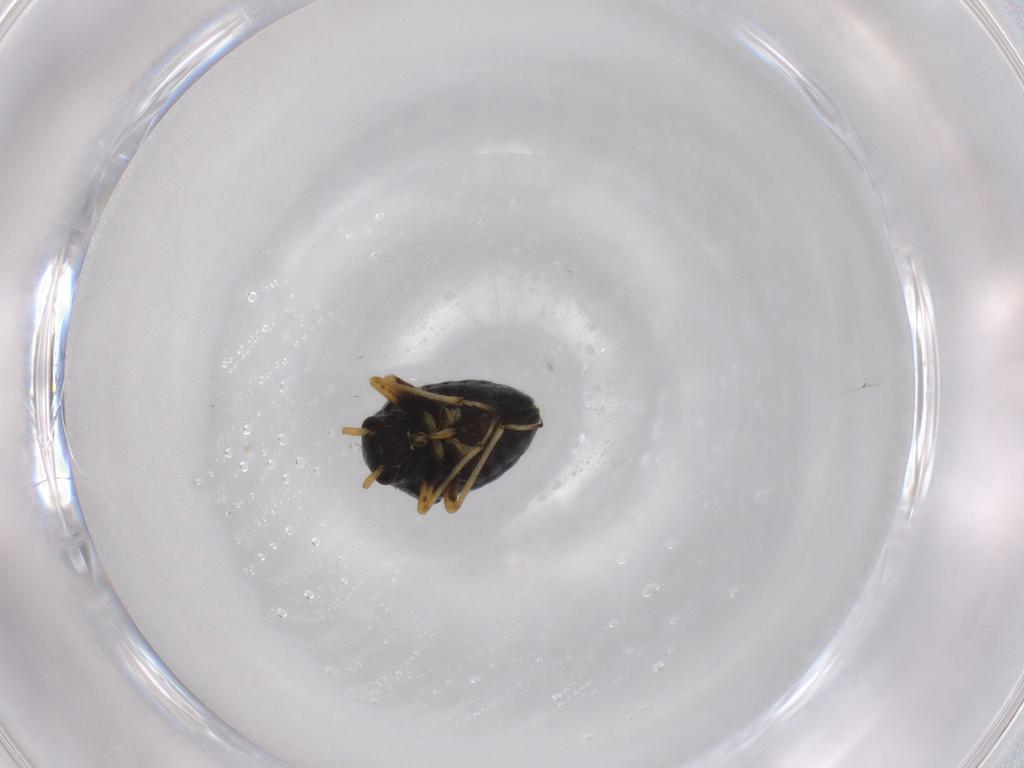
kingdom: Animalia
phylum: Arthropoda
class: Insecta
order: Hemiptera
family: Miridae
